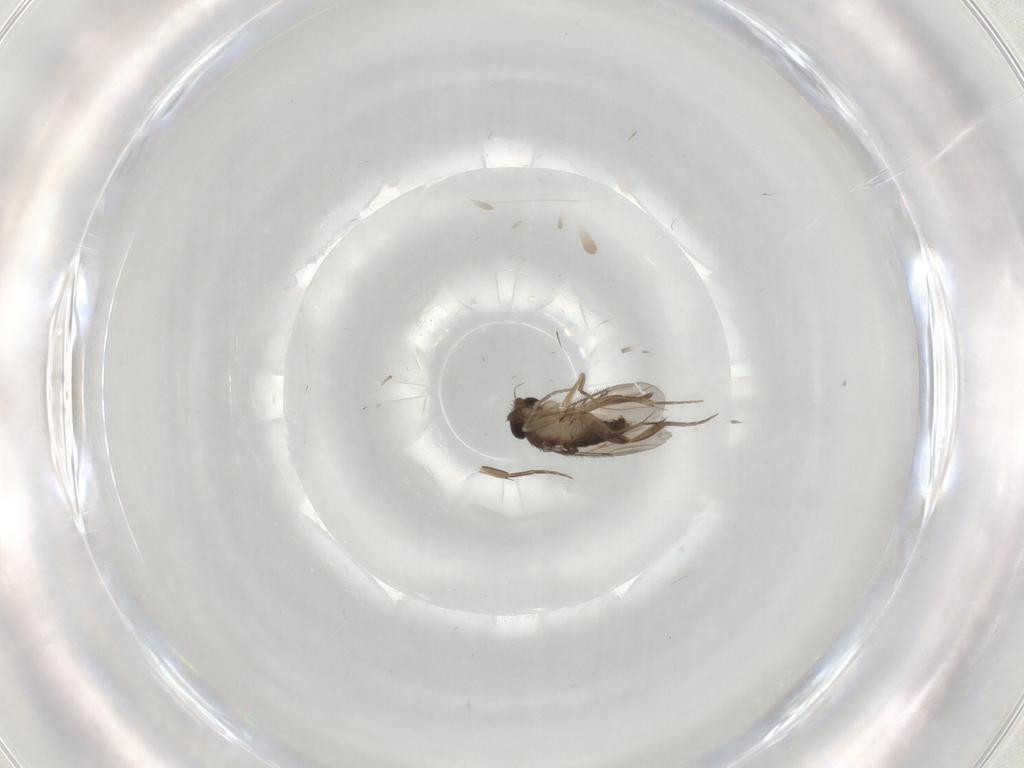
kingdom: Animalia
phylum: Arthropoda
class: Insecta
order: Diptera
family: Phoridae
